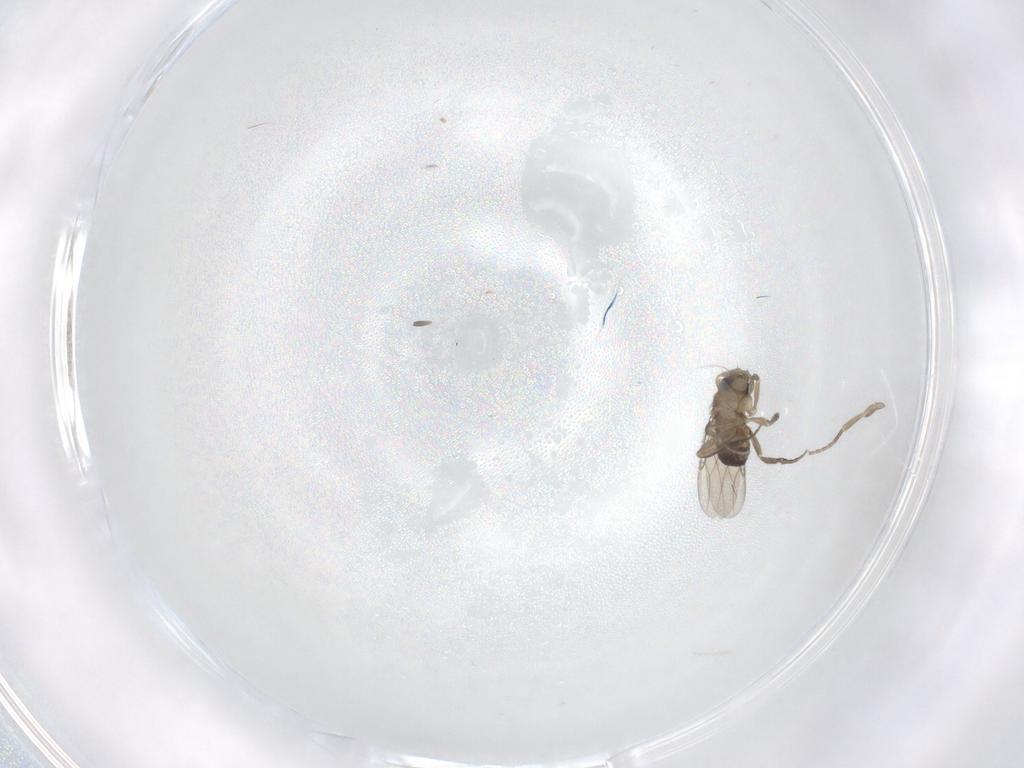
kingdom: Animalia
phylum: Arthropoda
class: Insecta
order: Diptera
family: Phoridae
